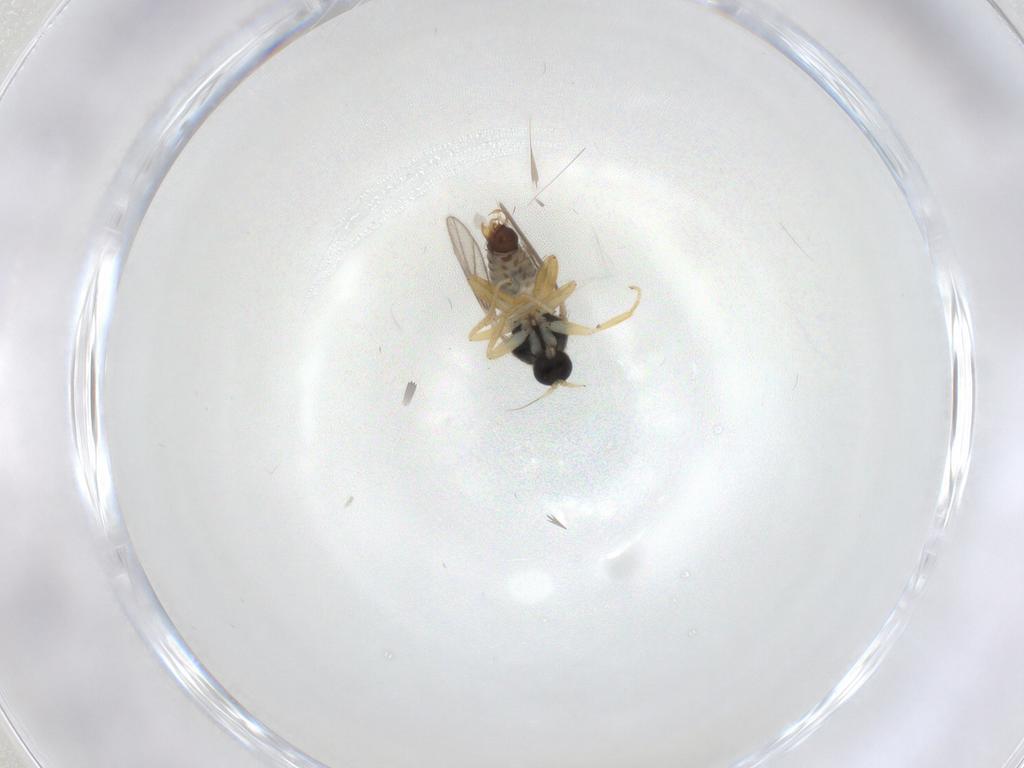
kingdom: Animalia
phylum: Arthropoda
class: Insecta
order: Diptera
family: Hybotidae
